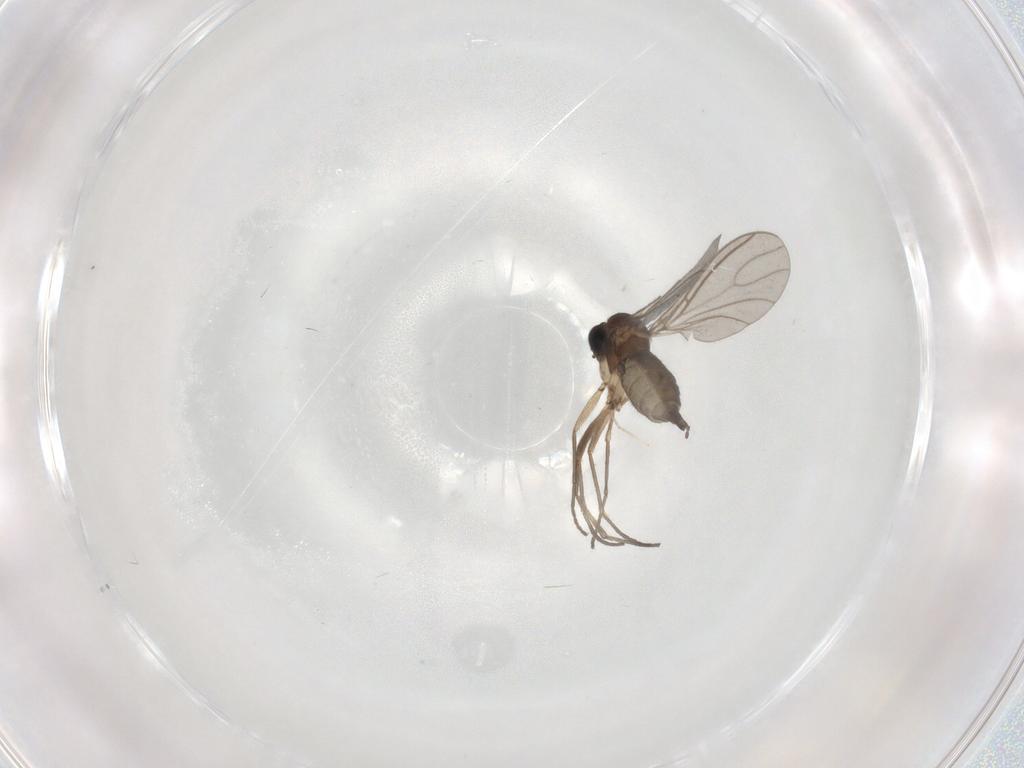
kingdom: Animalia
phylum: Arthropoda
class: Insecta
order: Diptera
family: Sciaridae
